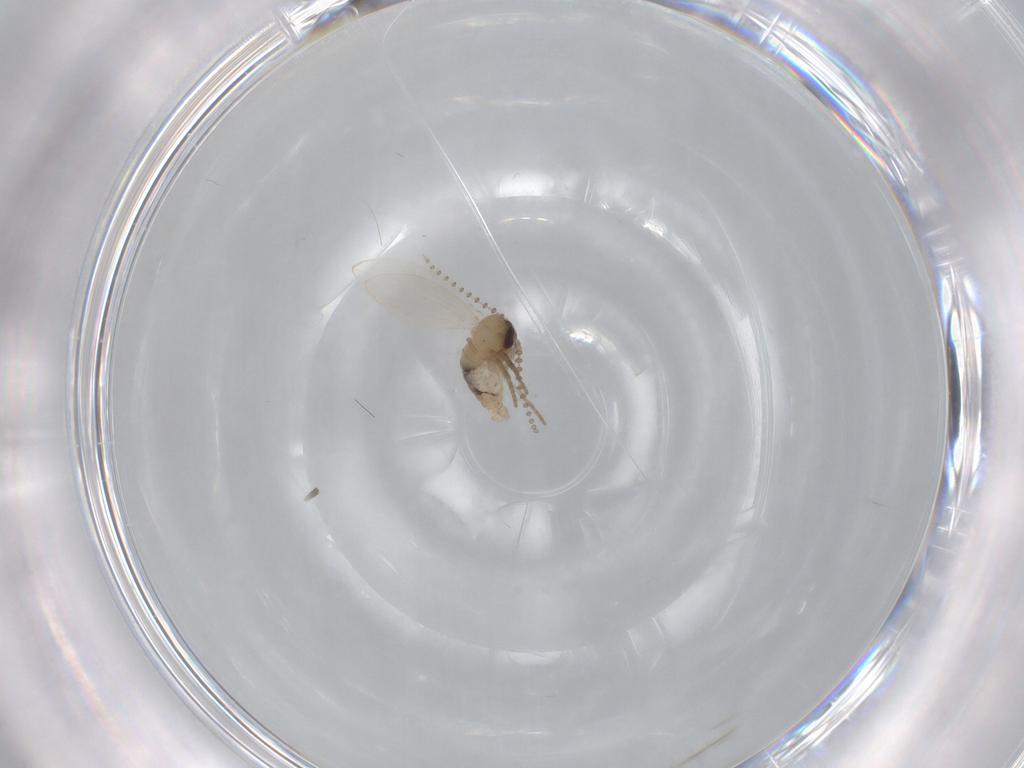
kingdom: Animalia
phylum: Arthropoda
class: Insecta
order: Diptera
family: Psychodidae
